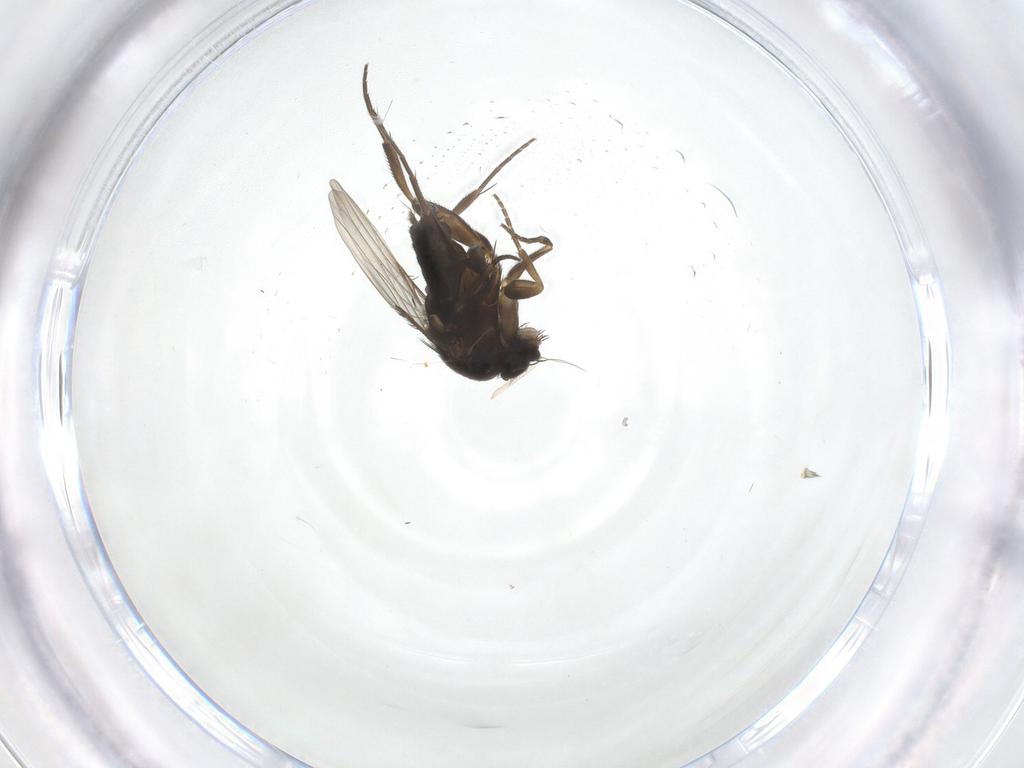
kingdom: Animalia
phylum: Arthropoda
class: Insecta
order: Diptera
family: Phoridae
